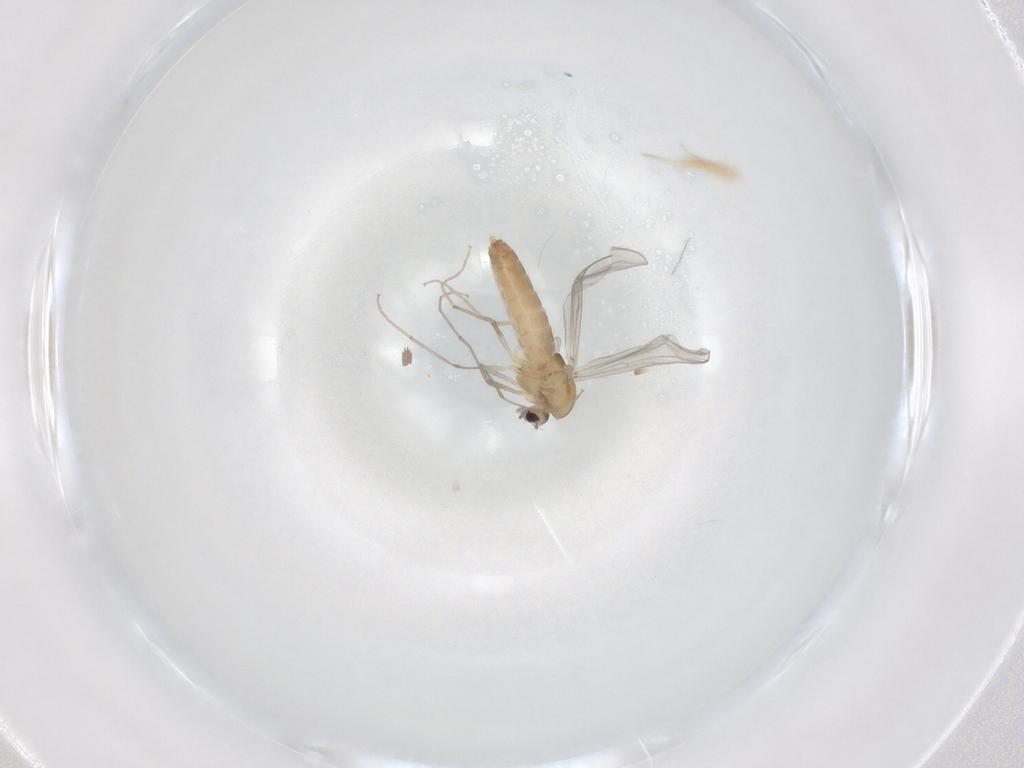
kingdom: Animalia
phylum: Arthropoda
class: Insecta
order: Diptera
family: Chironomidae
